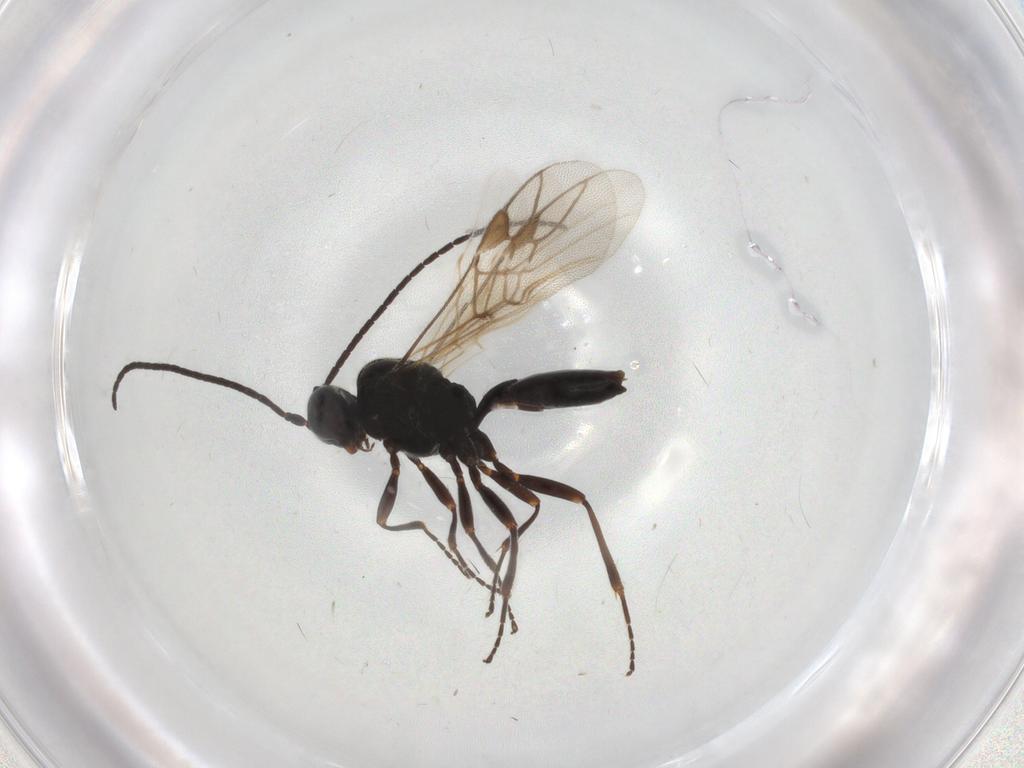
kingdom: Animalia
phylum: Arthropoda
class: Insecta
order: Hymenoptera
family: Braconidae
